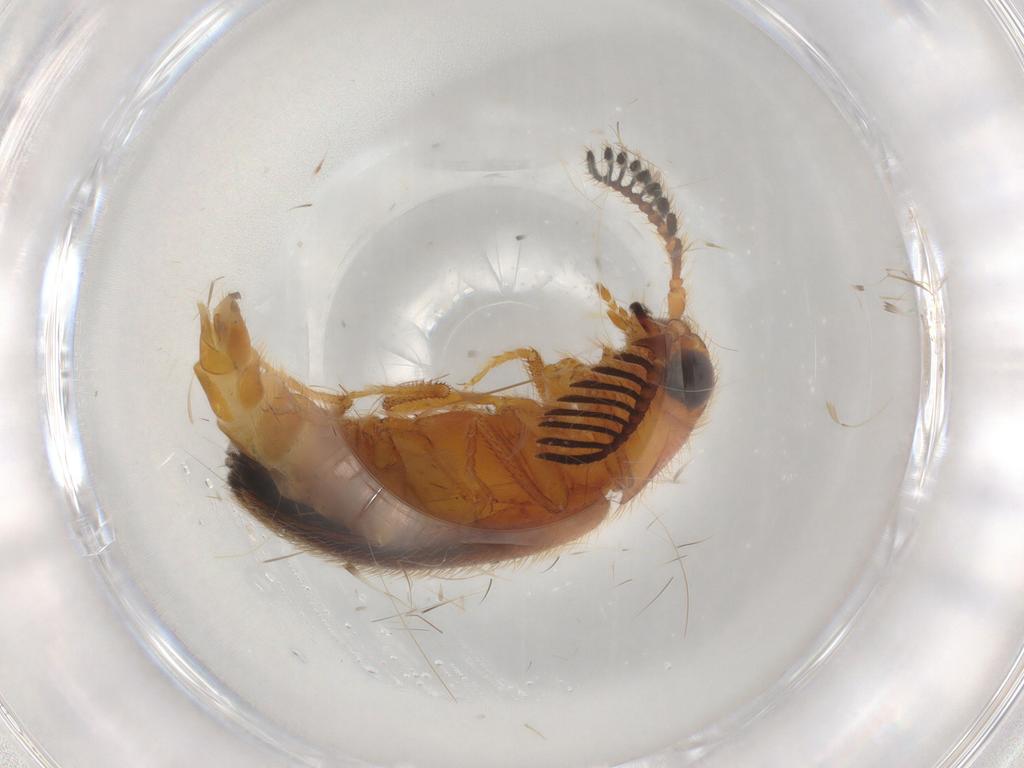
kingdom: Animalia
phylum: Arthropoda
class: Insecta
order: Coleoptera
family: Elateridae
